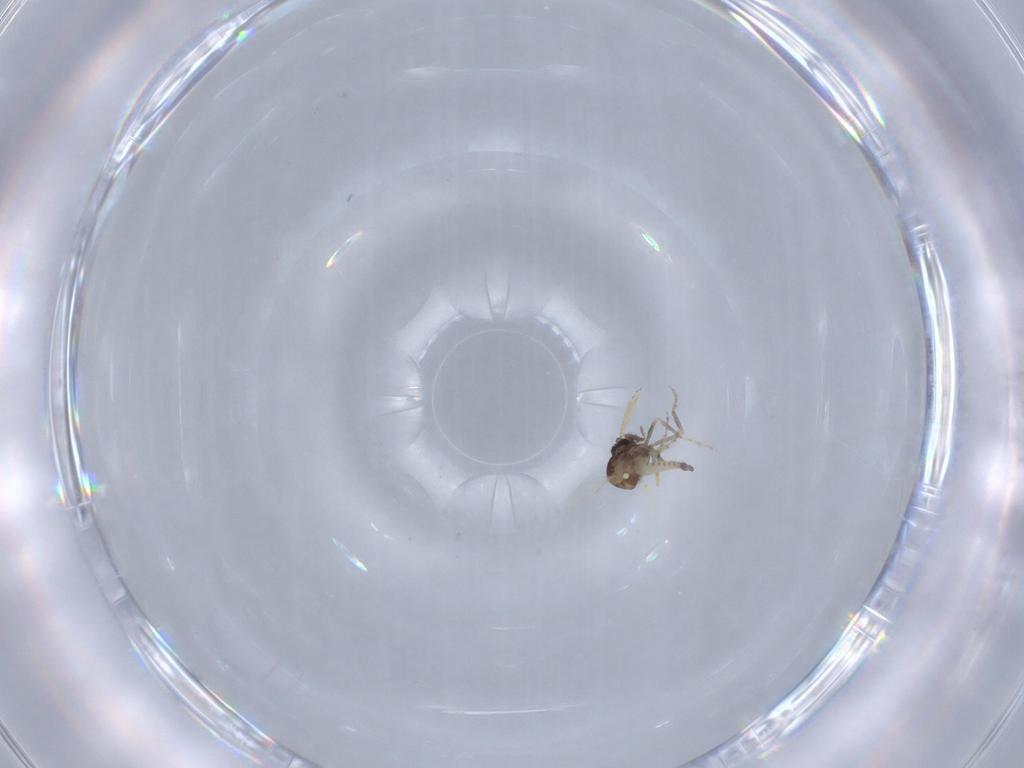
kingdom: Animalia
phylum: Arthropoda
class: Insecta
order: Diptera
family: Ceratopogonidae
